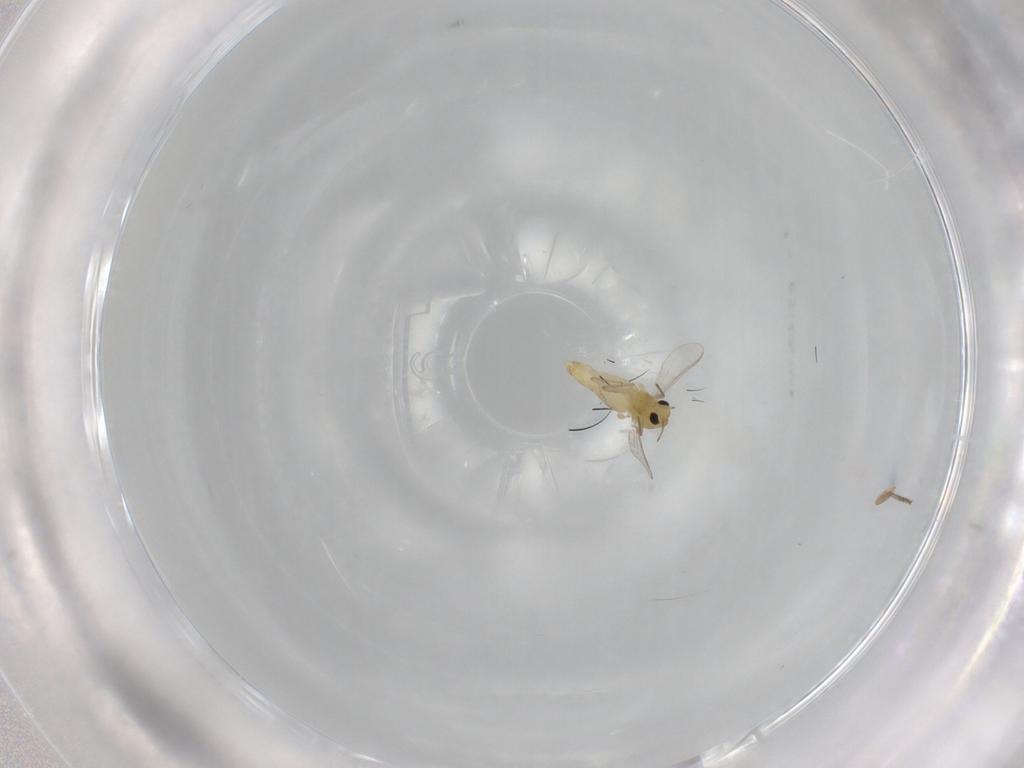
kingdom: Animalia
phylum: Arthropoda
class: Insecta
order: Diptera
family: Chironomidae
